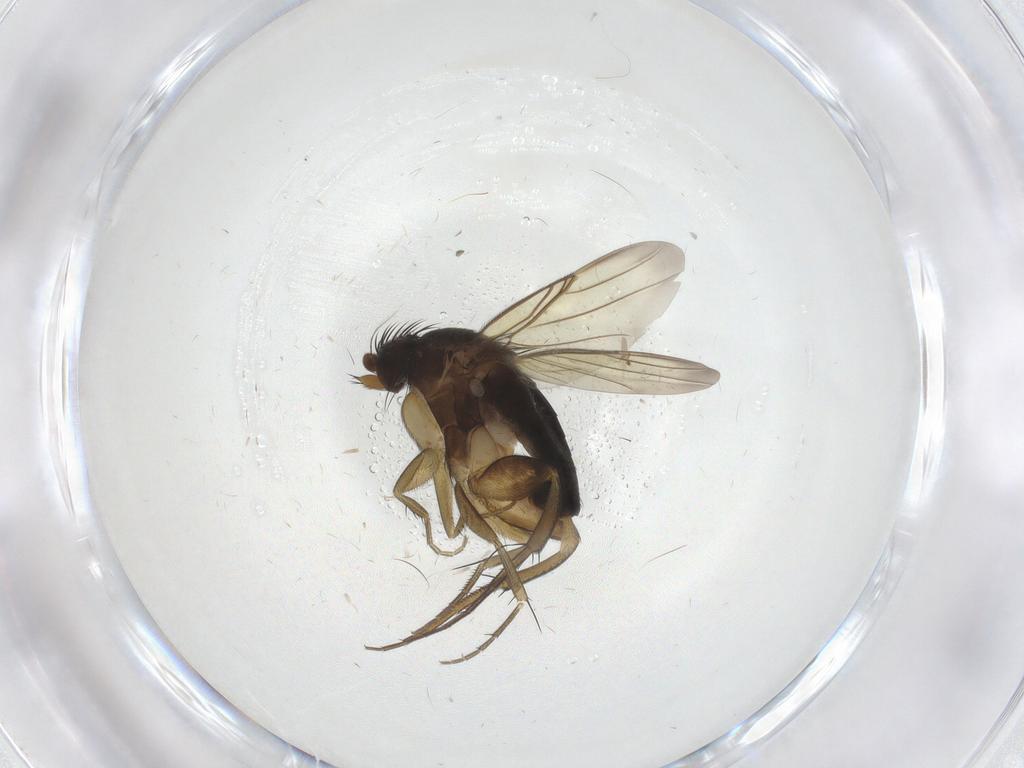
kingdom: Animalia
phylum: Arthropoda
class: Insecta
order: Diptera
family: Phoridae
